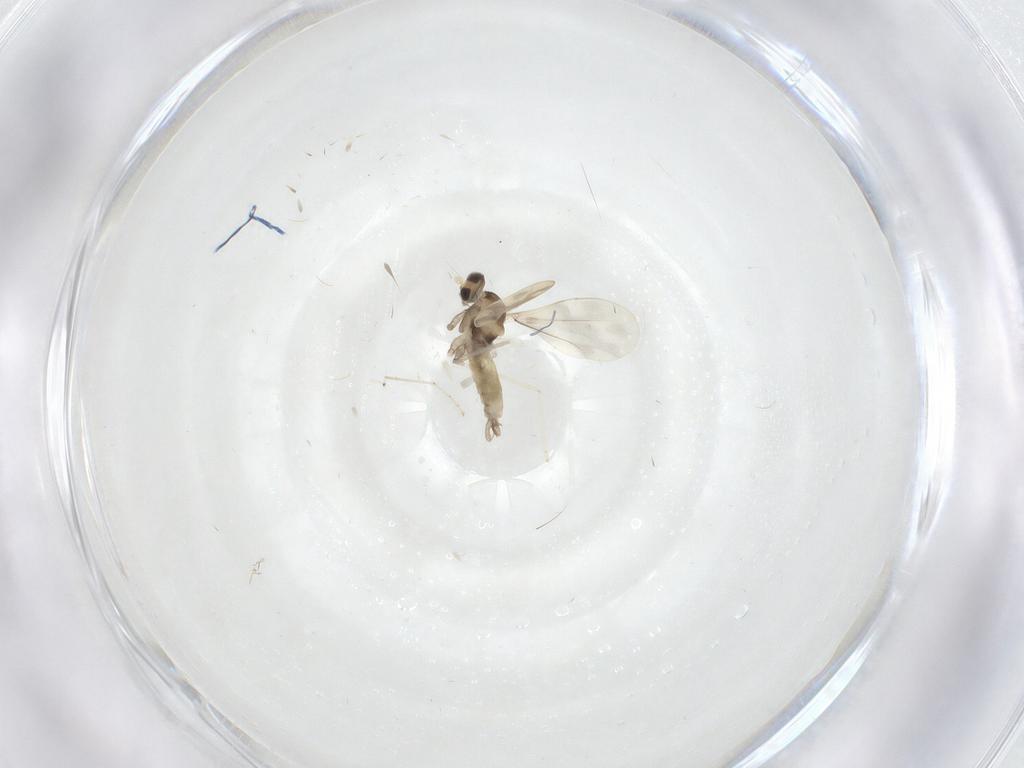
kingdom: Animalia
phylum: Arthropoda
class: Insecta
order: Diptera
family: Cecidomyiidae
